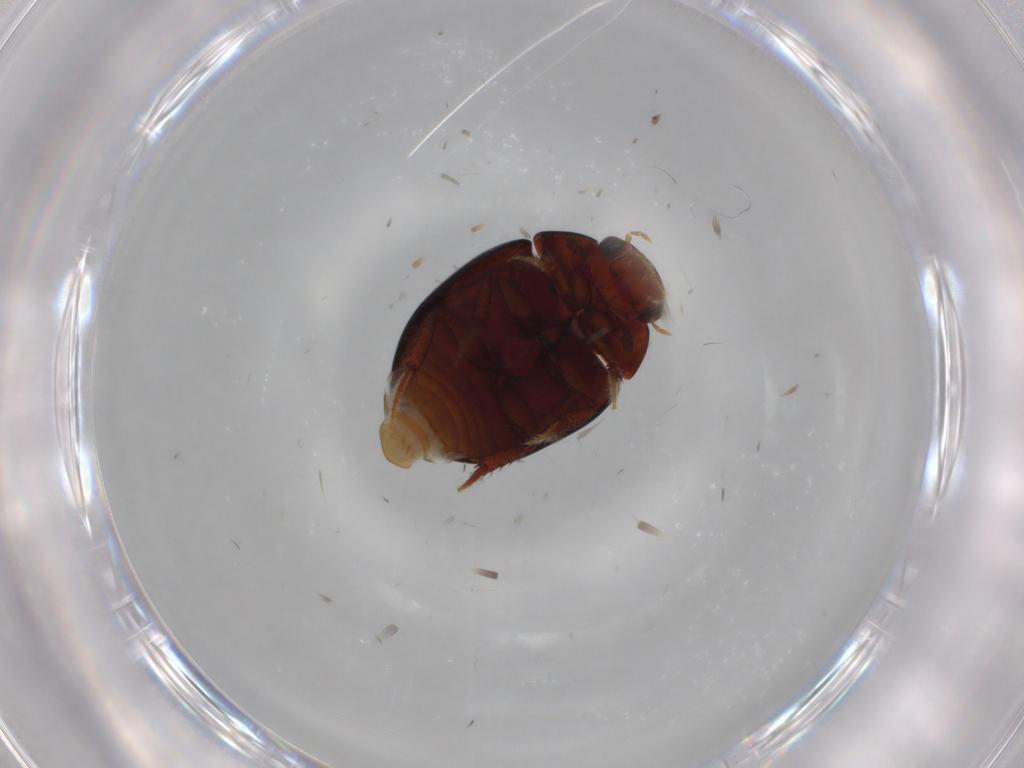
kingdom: Animalia
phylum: Arthropoda
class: Insecta
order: Coleoptera
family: Hydrophilidae
